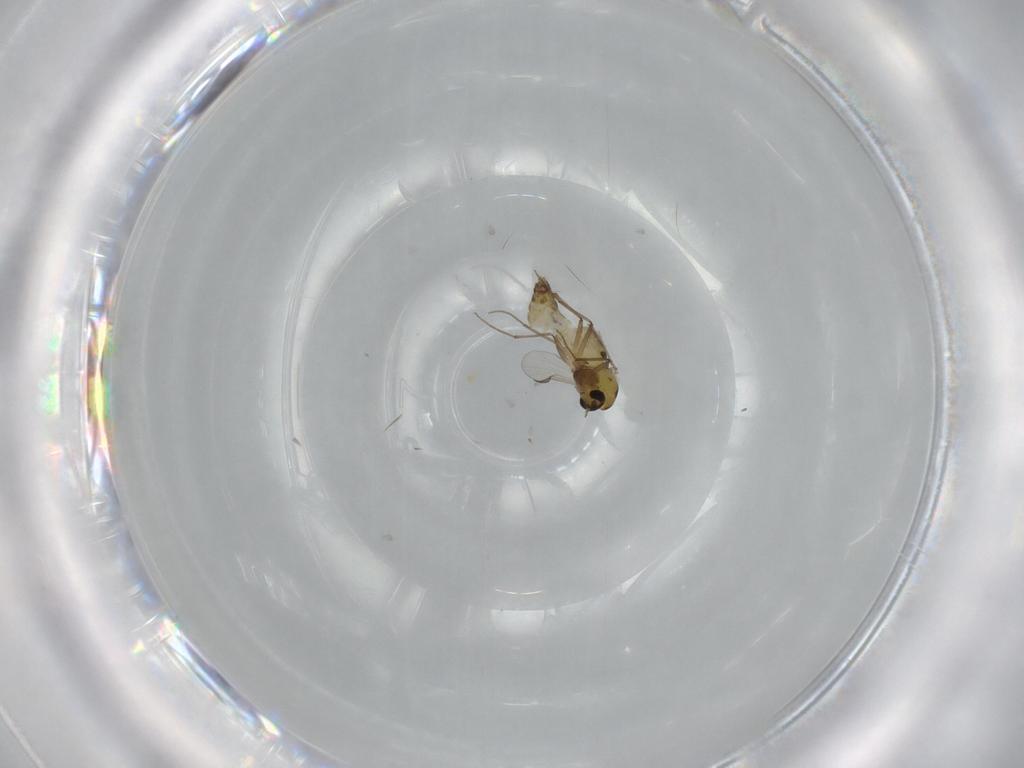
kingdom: Animalia
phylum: Arthropoda
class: Insecta
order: Diptera
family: Chironomidae
